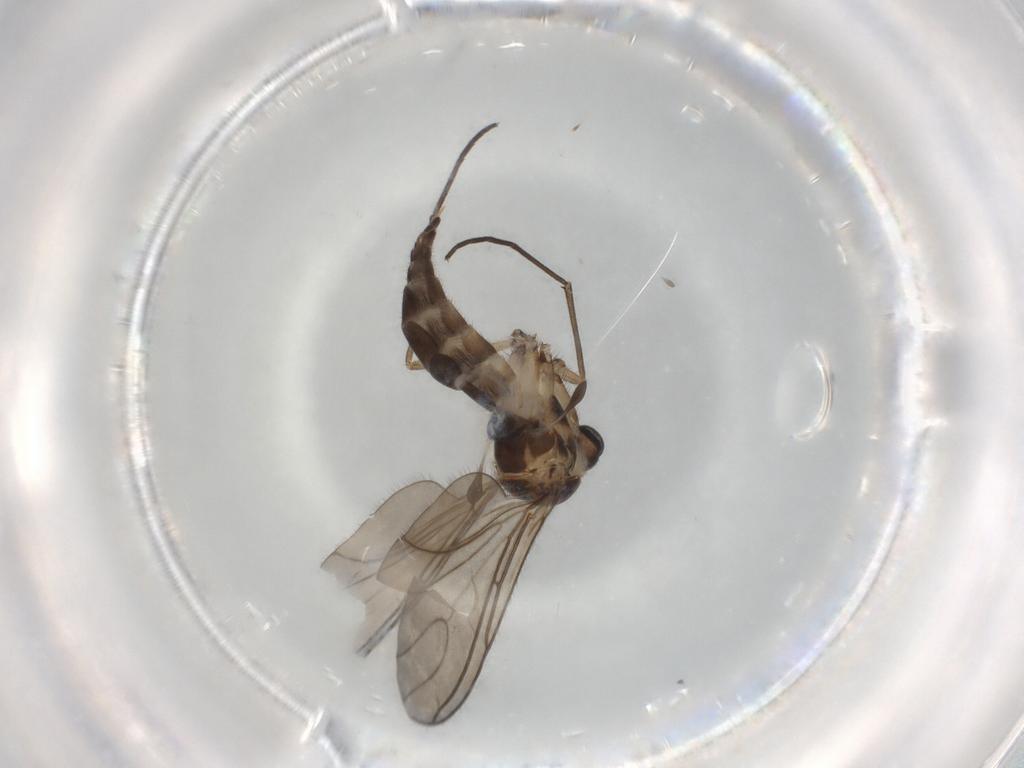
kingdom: Animalia
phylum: Arthropoda
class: Insecta
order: Diptera
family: Sciaridae
